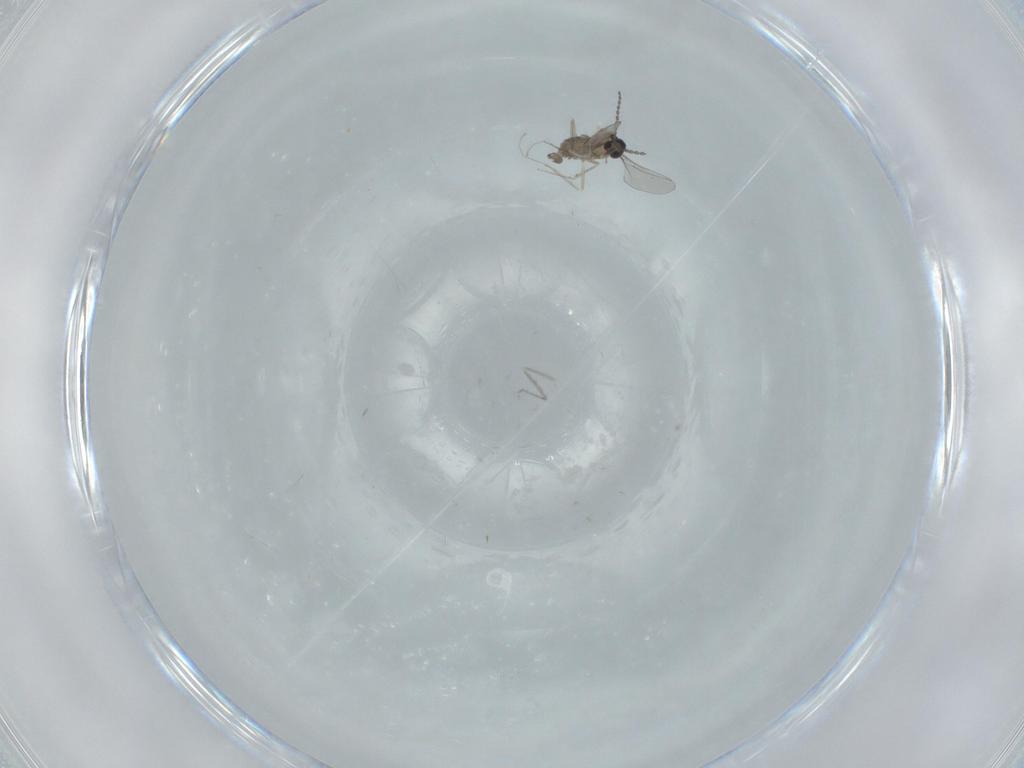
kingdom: Animalia
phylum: Arthropoda
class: Insecta
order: Diptera
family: Cecidomyiidae
